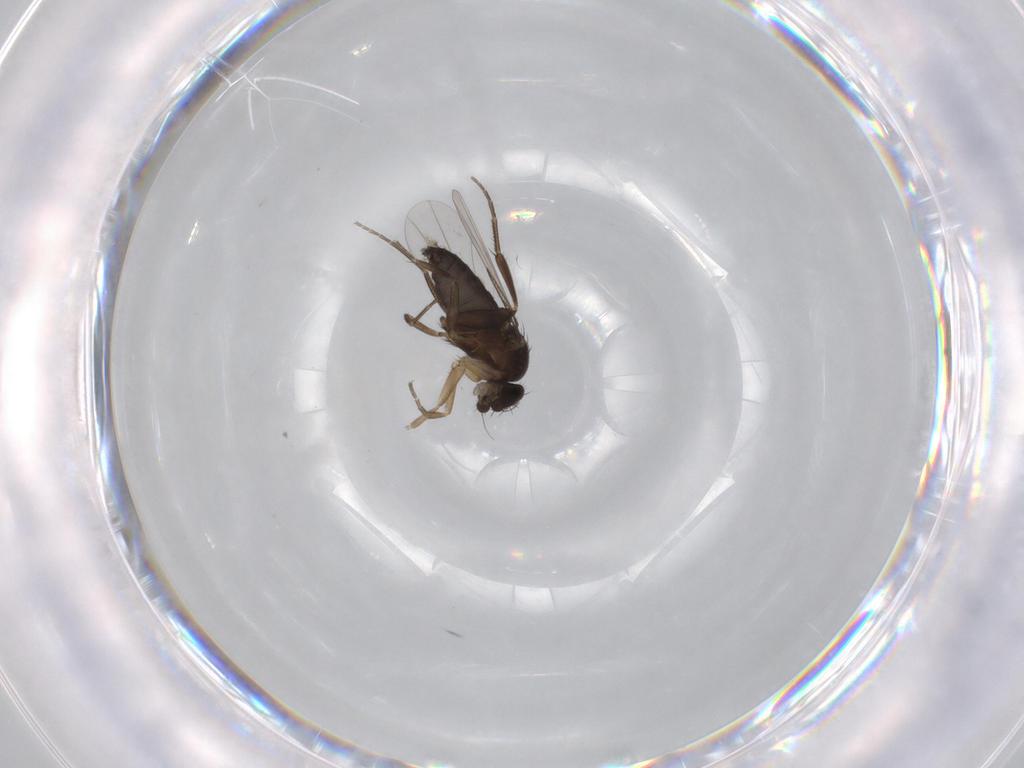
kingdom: Animalia
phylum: Arthropoda
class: Insecta
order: Diptera
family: Phoridae
